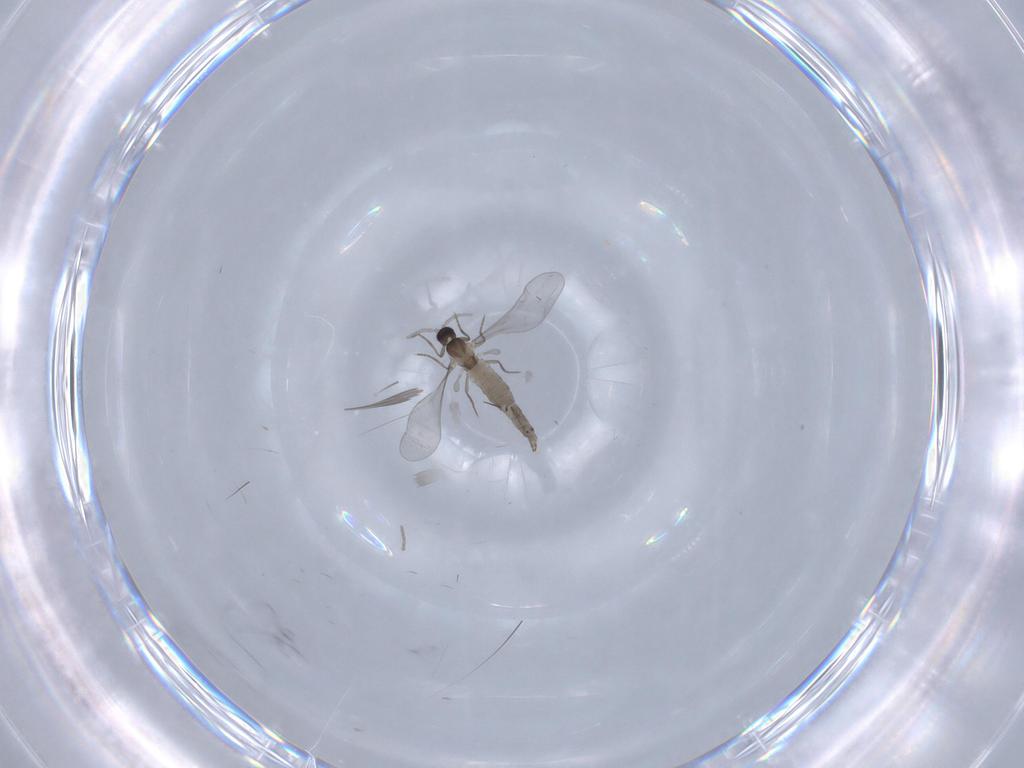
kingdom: Animalia
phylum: Arthropoda
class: Insecta
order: Diptera
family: Cecidomyiidae
